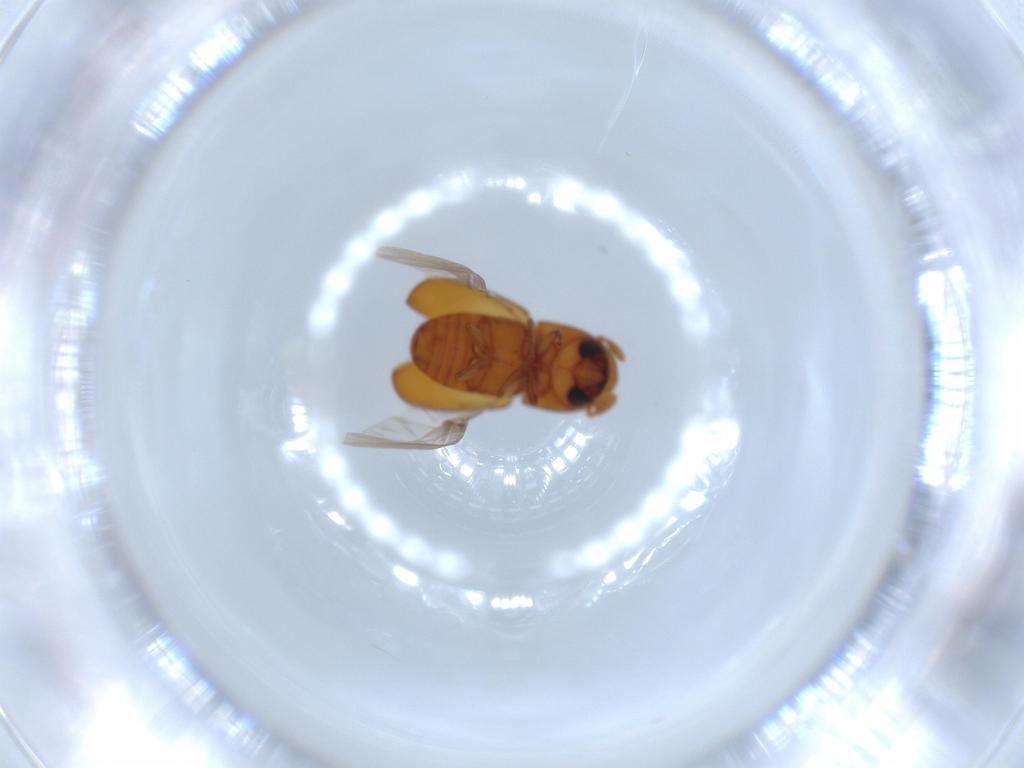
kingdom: Animalia
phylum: Arthropoda
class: Insecta
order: Coleoptera
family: Curculionidae
